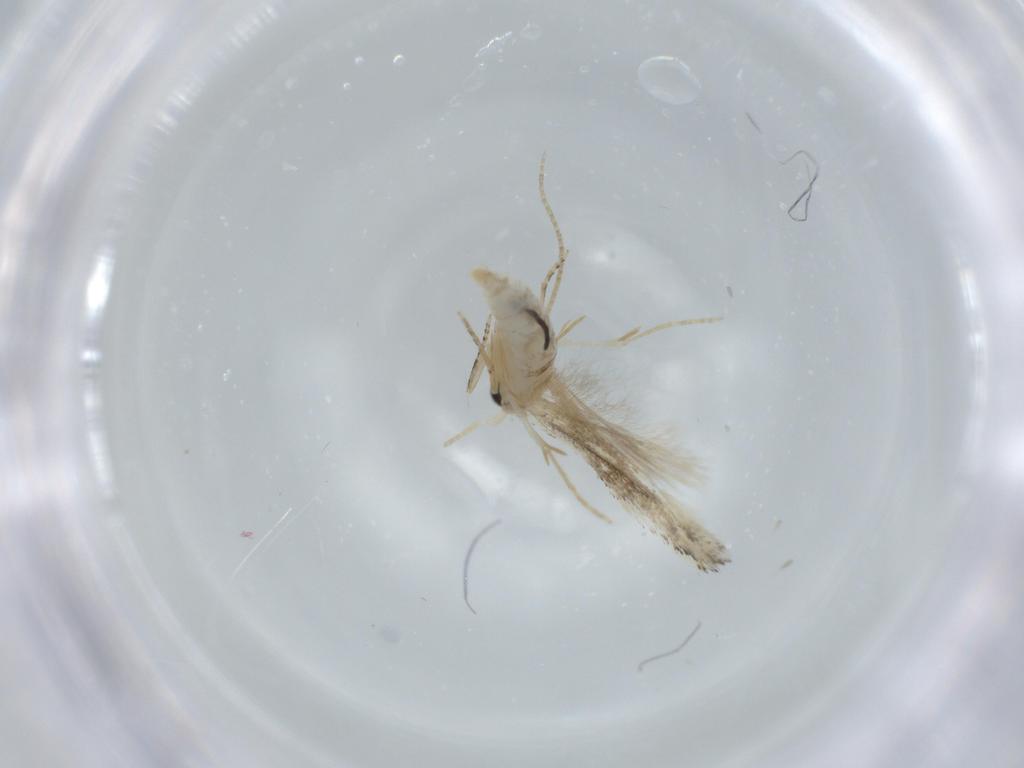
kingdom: Animalia
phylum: Arthropoda
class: Insecta
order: Lepidoptera
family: Bucculatricidae
